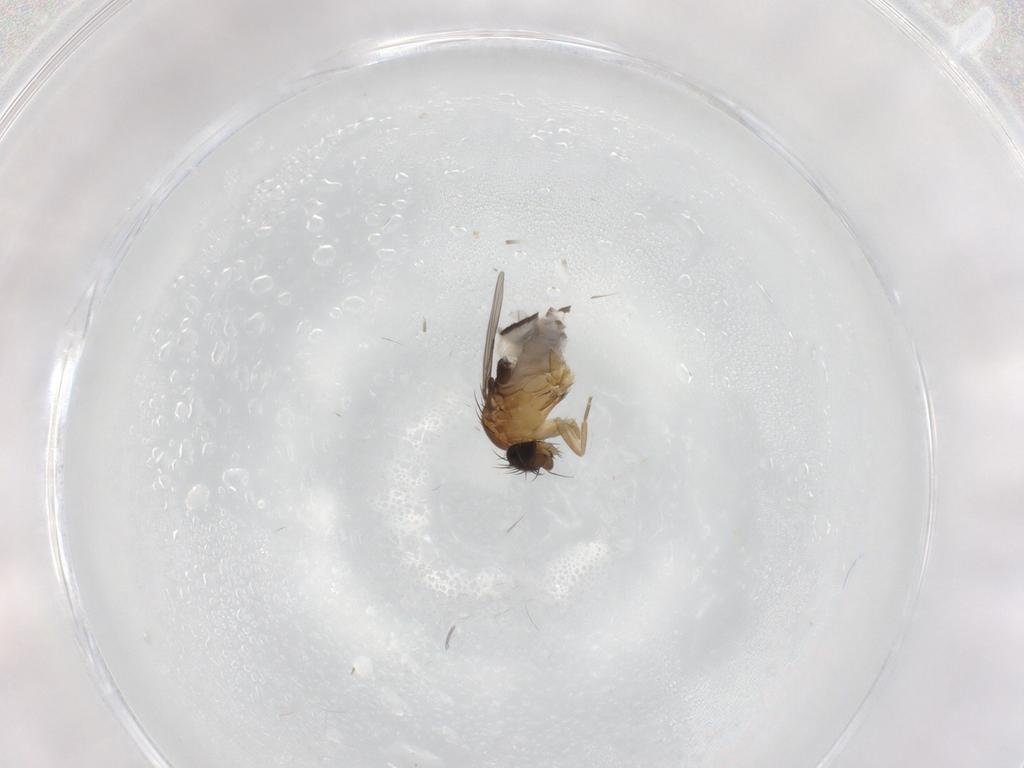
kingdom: Animalia
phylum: Arthropoda
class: Insecta
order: Diptera
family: Phoridae
